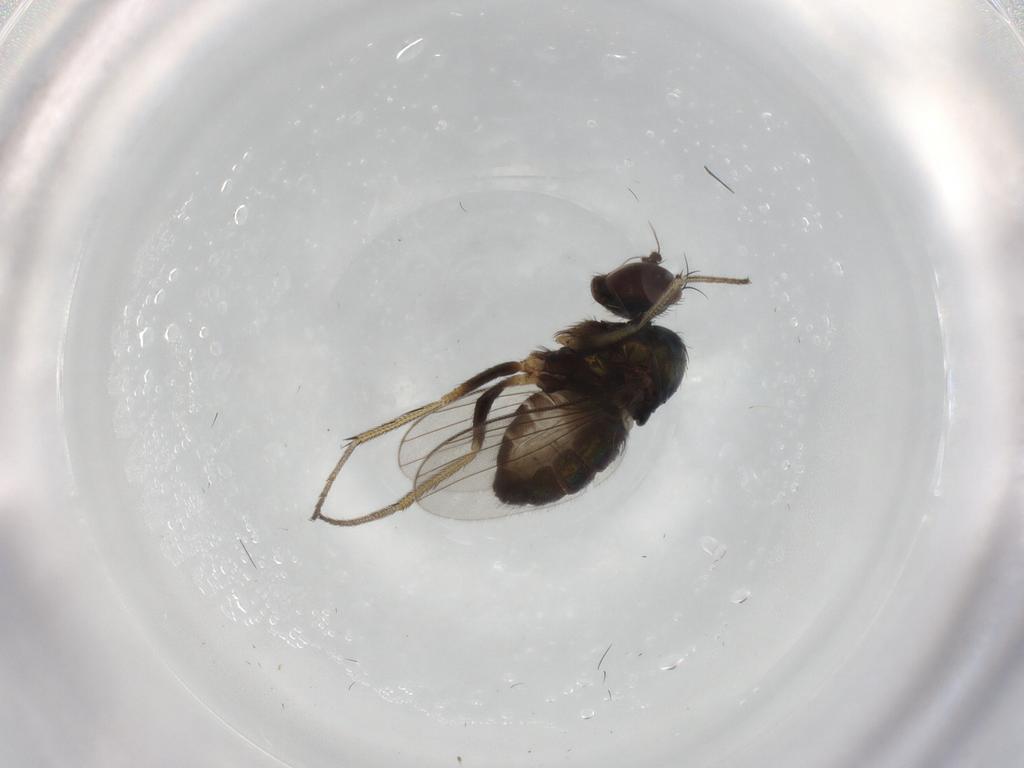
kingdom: Animalia
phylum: Arthropoda
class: Insecta
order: Diptera
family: Dolichopodidae
